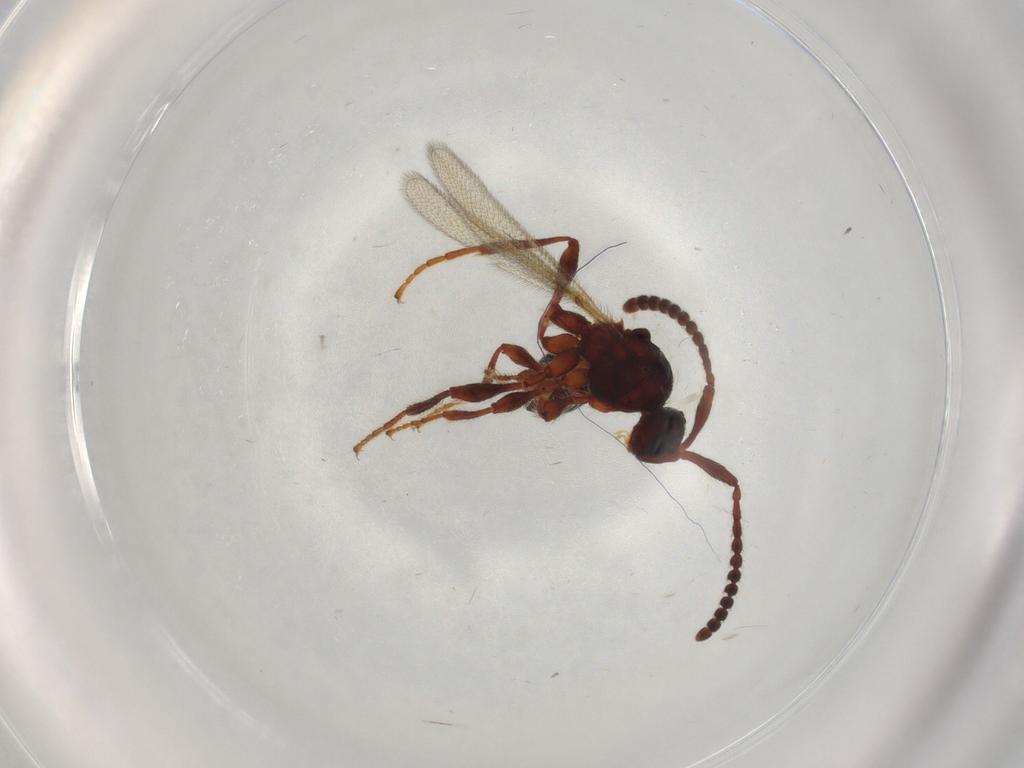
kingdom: Animalia
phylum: Arthropoda
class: Insecta
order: Hymenoptera
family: Diapriidae
